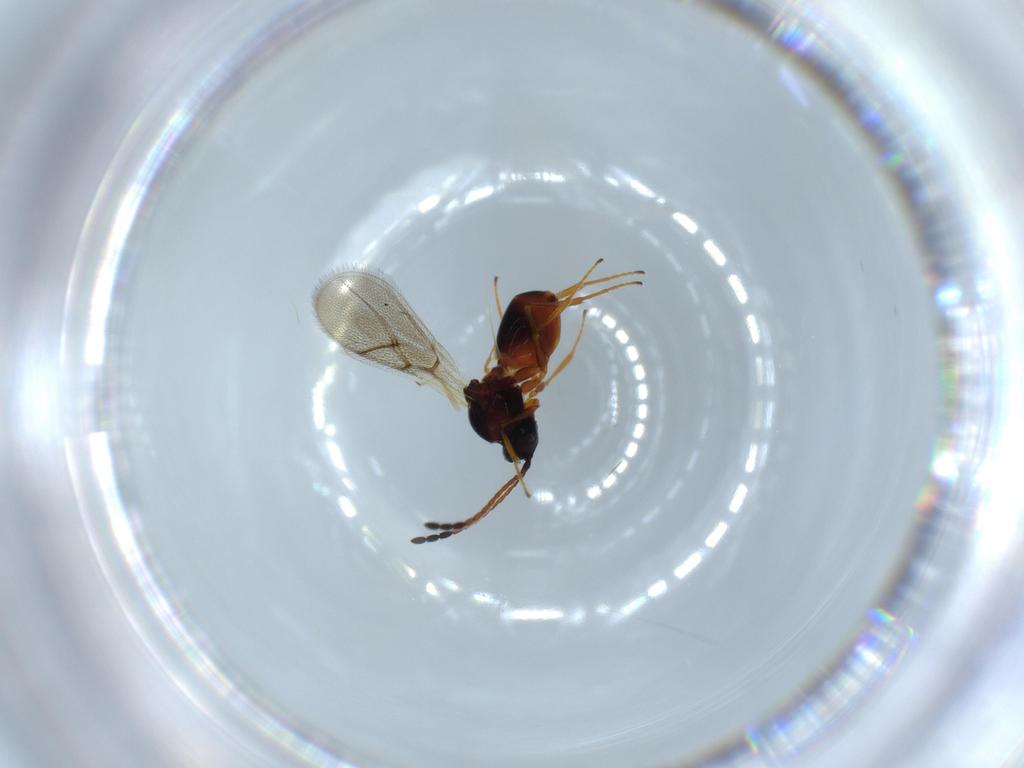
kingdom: Animalia
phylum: Arthropoda
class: Insecta
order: Hymenoptera
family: Figitidae
